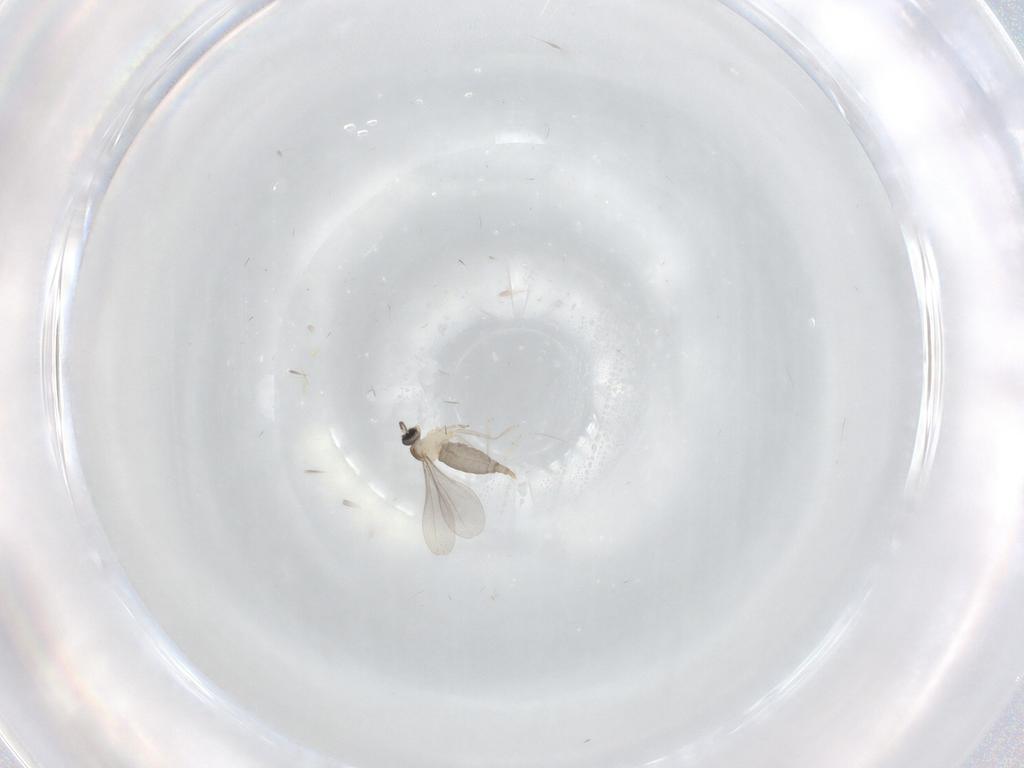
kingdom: Animalia
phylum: Arthropoda
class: Insecta
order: Diptera
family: Cecidomyiidae
